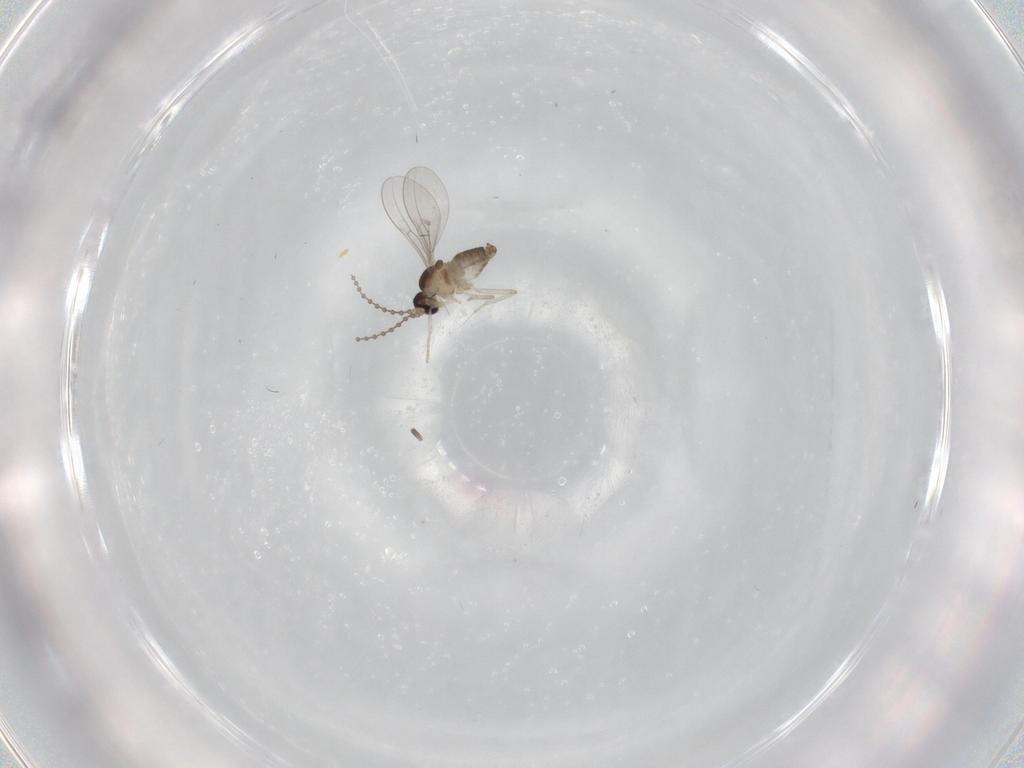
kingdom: Animalia
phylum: Arthropoda
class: Insecta
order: Diptera
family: Cecidomyiidae
